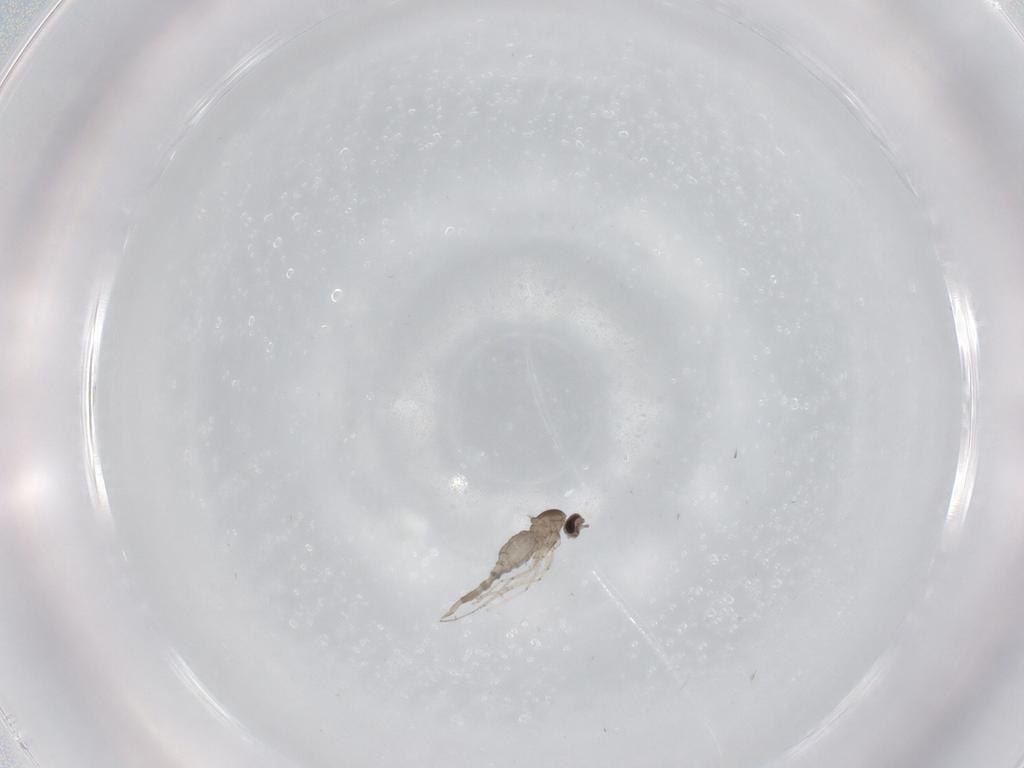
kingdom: Animalia
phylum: Arthropoda
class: Insecta
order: Diptera
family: Cecidomyiidae
